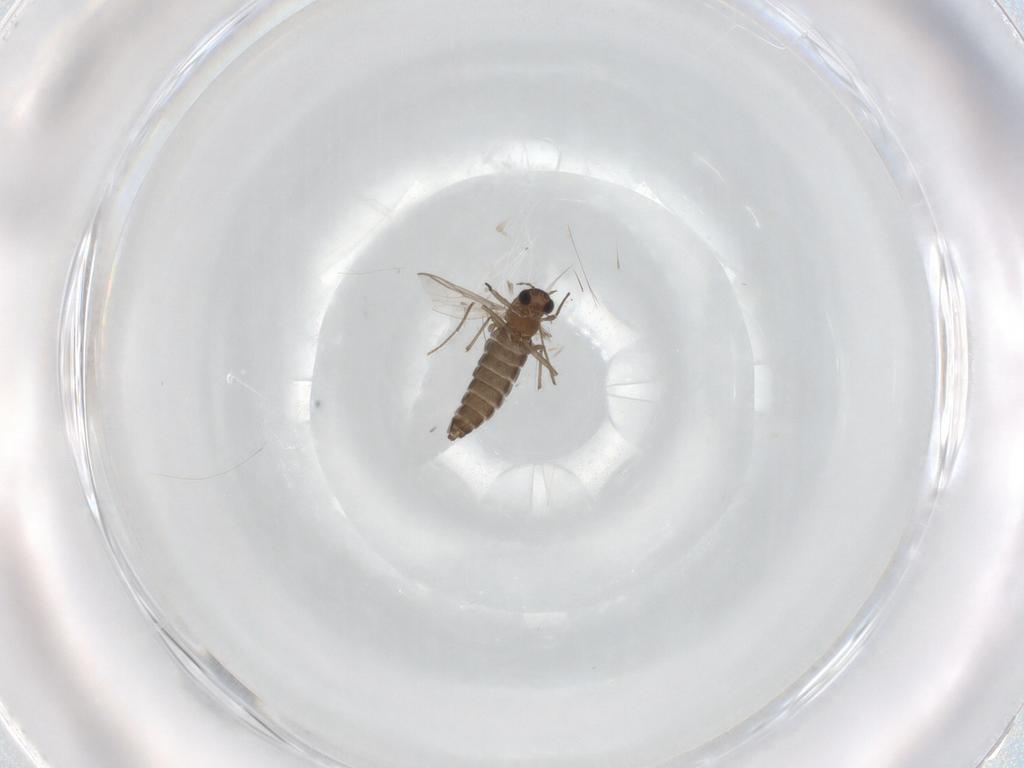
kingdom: Animalia
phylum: Arthropoda
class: Insecta
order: Diptera
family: Chironomidae
